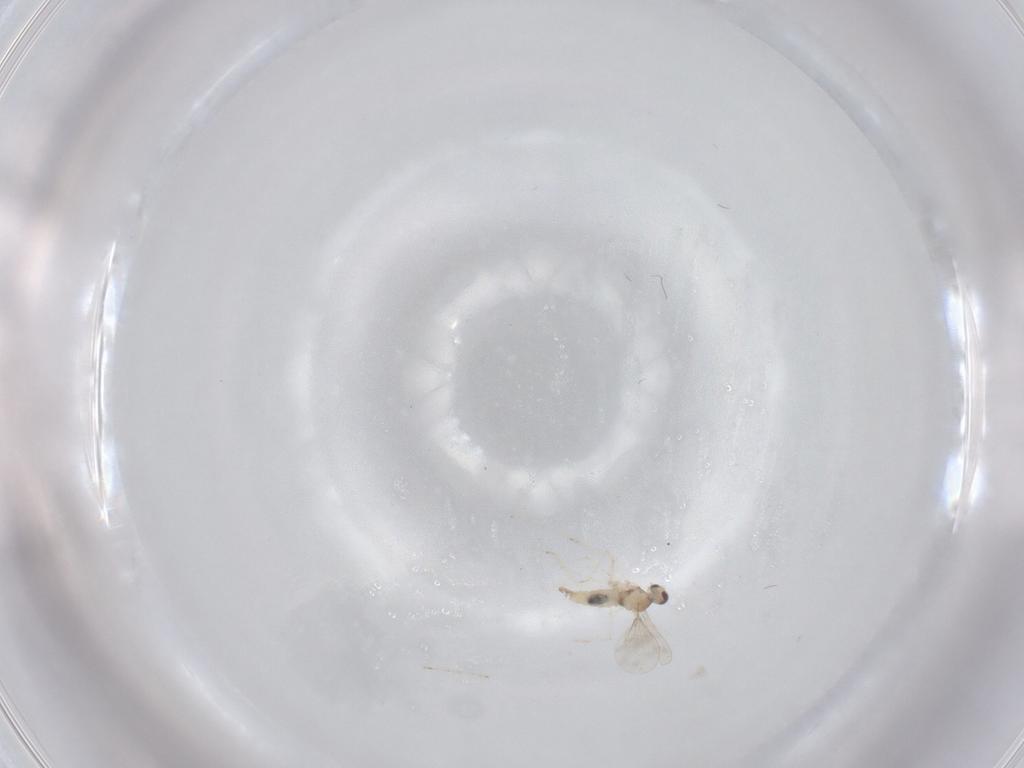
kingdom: Animalia
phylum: Arthropoda
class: Insecta
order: Diptera
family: Cecidomyiidae
